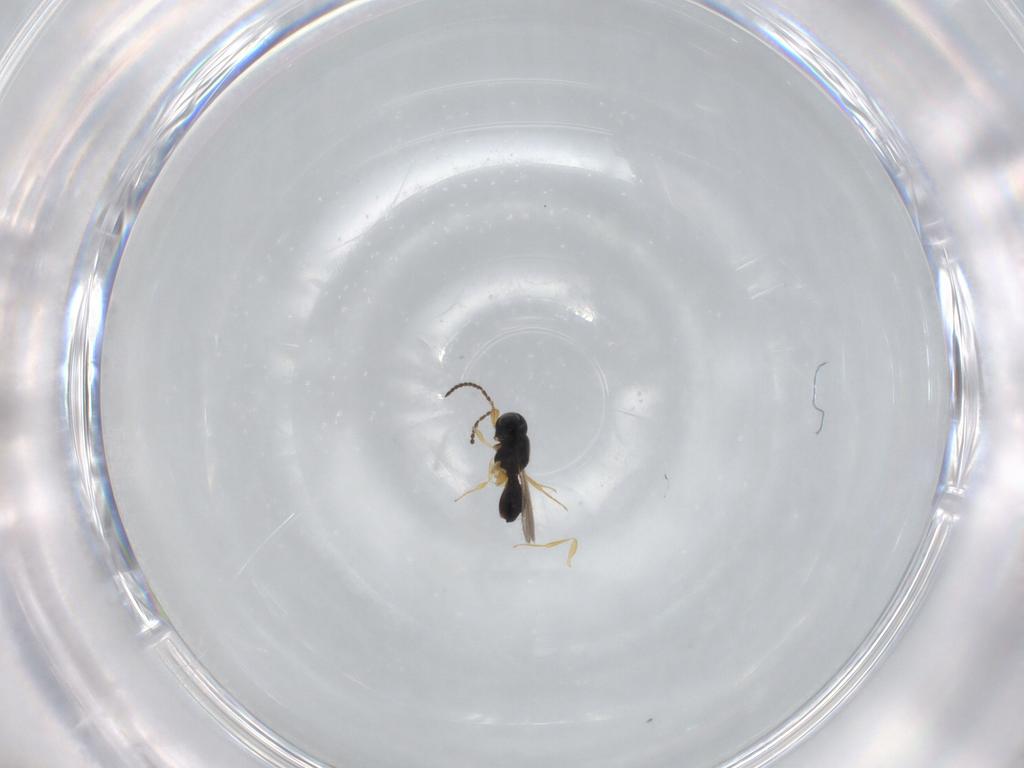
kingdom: Animalia
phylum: Arthropoda
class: Insecta
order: Hymenoptera
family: Scelionidae
